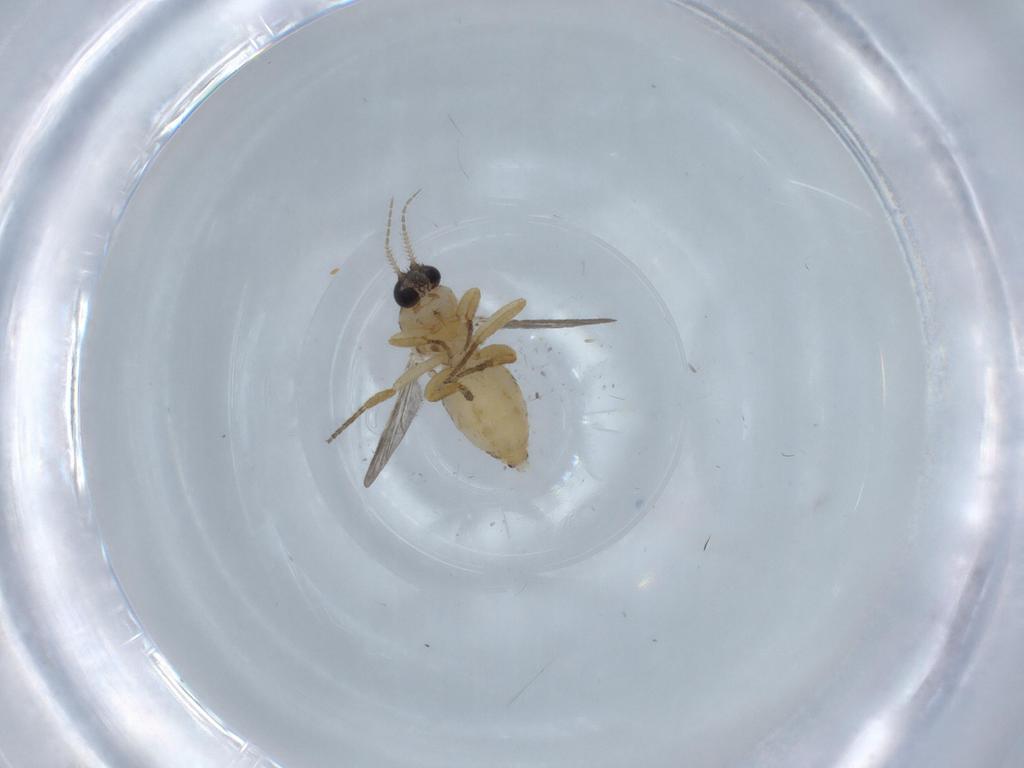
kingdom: Animalia
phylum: Arthropoda
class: Insecta
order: Diptera
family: Ceratopogonidae
